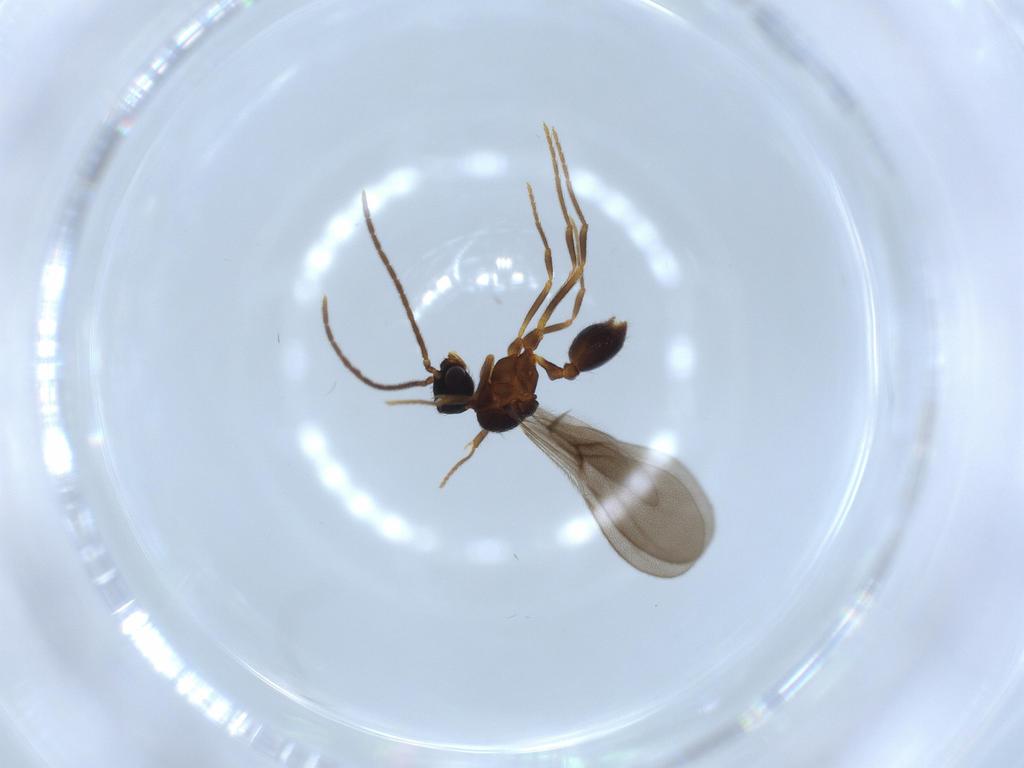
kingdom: Animalia
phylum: Arthropoda
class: Insecta
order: Hymenoptera
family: Formicidae
